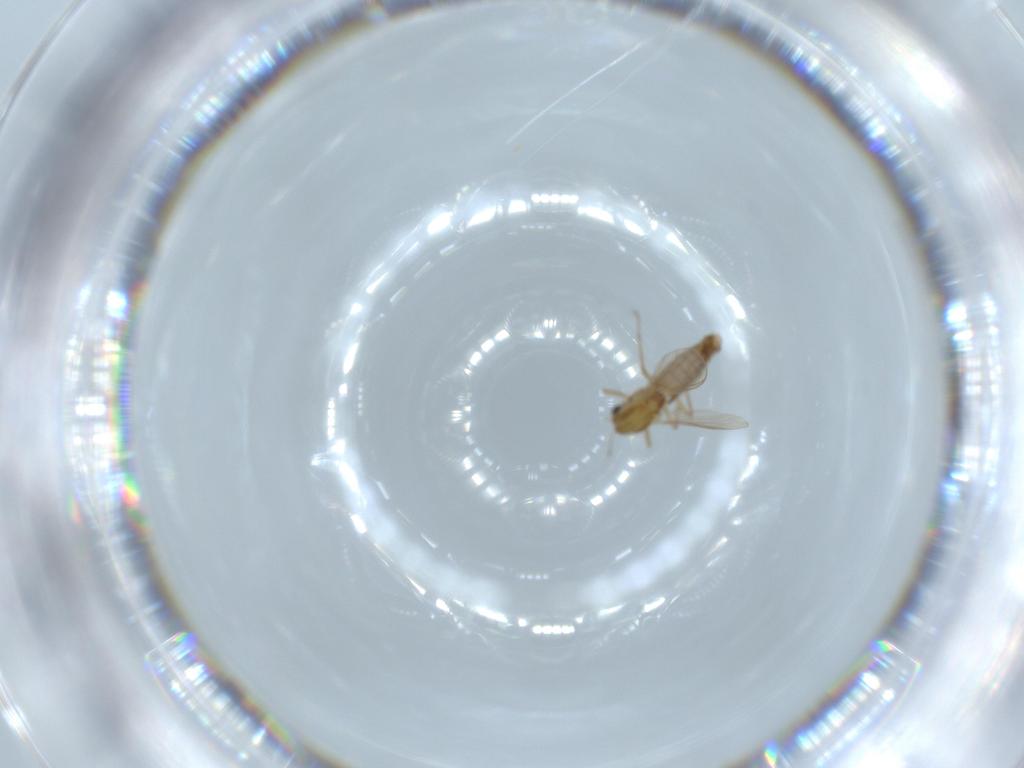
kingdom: Animalia
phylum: Arthropoda
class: Insecta
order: Diptera
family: Chironomidae
